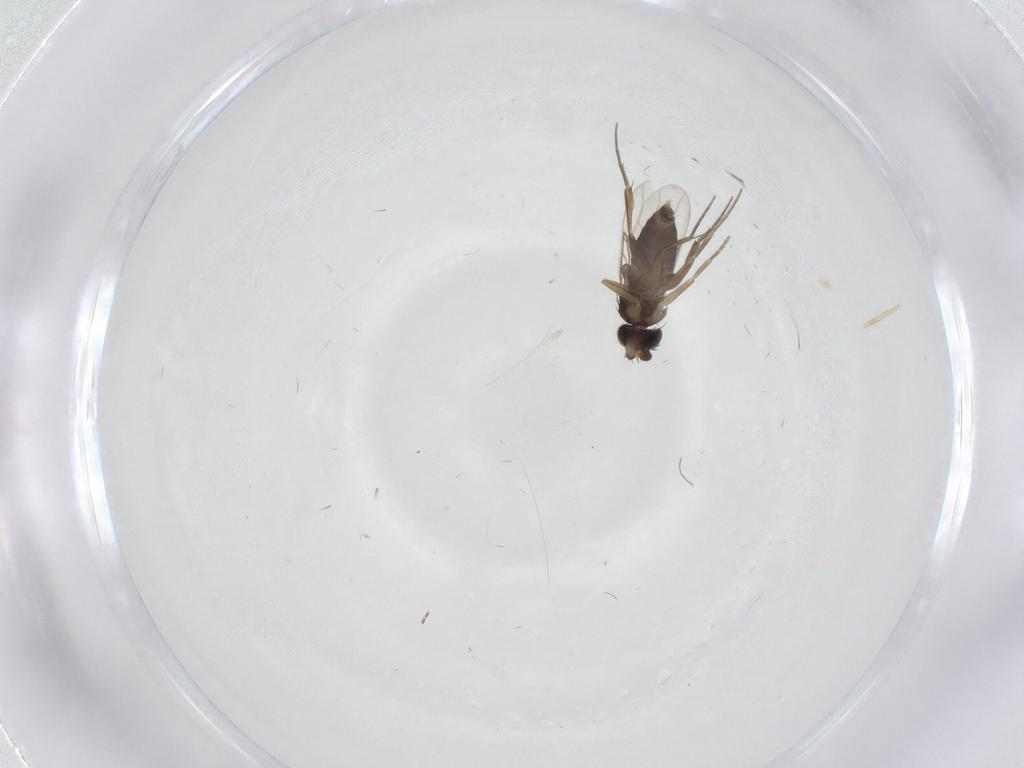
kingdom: Animalia
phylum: Arthropoda
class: Insecta
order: Diptera
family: Phoridae
